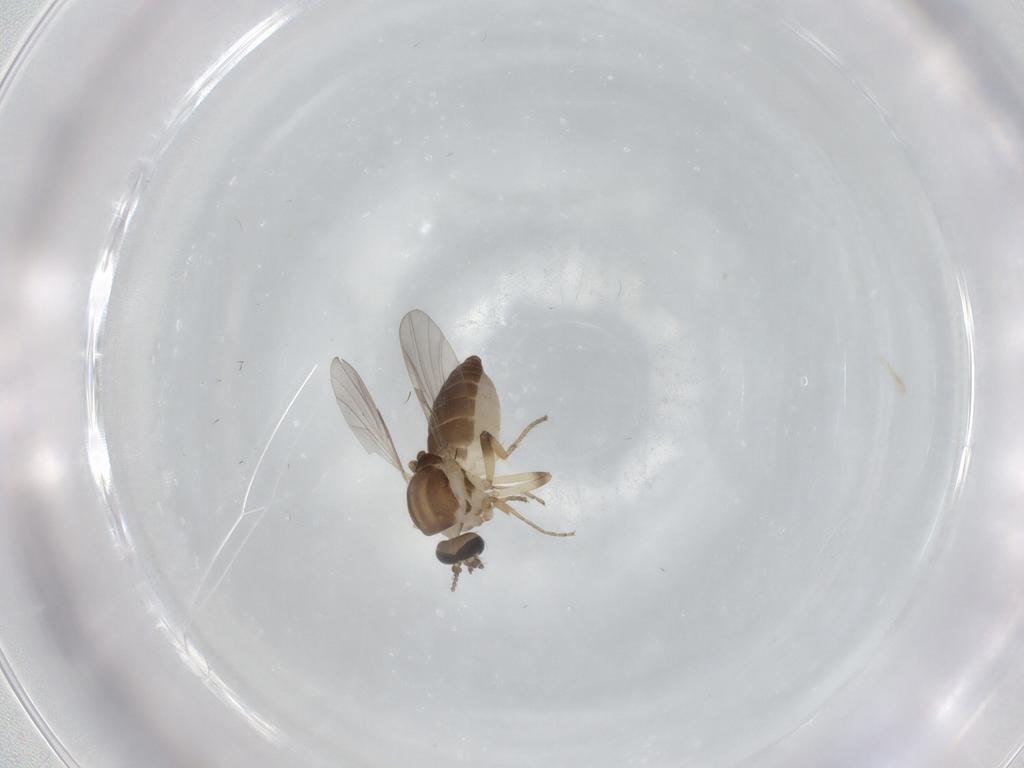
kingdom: Animalia
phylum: Arthropoda
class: Insecta
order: Diptera
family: Ceratopogonidae
